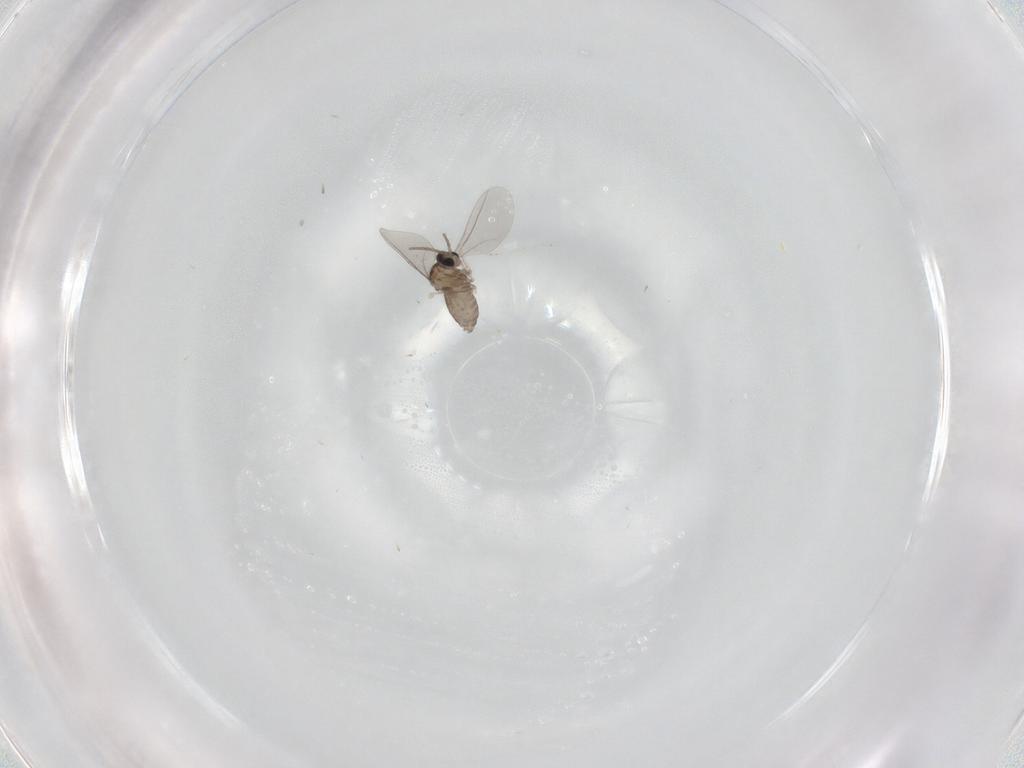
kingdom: Animalia
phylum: Arthropoda
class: Insecta
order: Diptera
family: Cecidomyiidae
